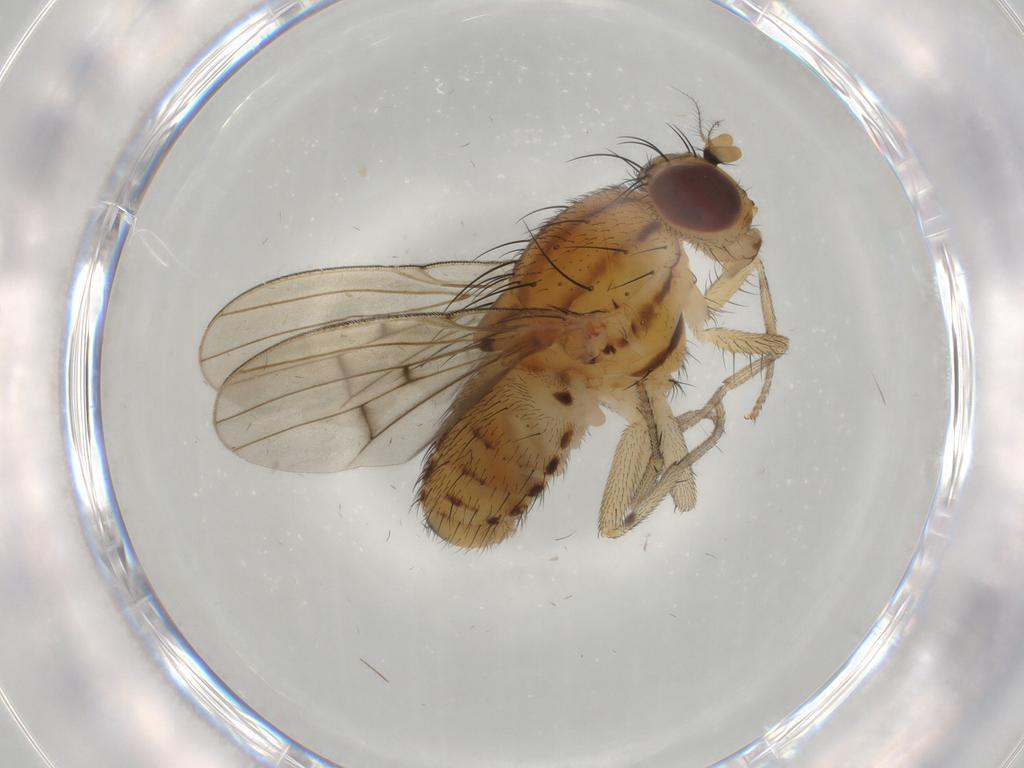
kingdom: Animalia
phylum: Arthropoda
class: Insecta
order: Diptera
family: Lauxaniidae
